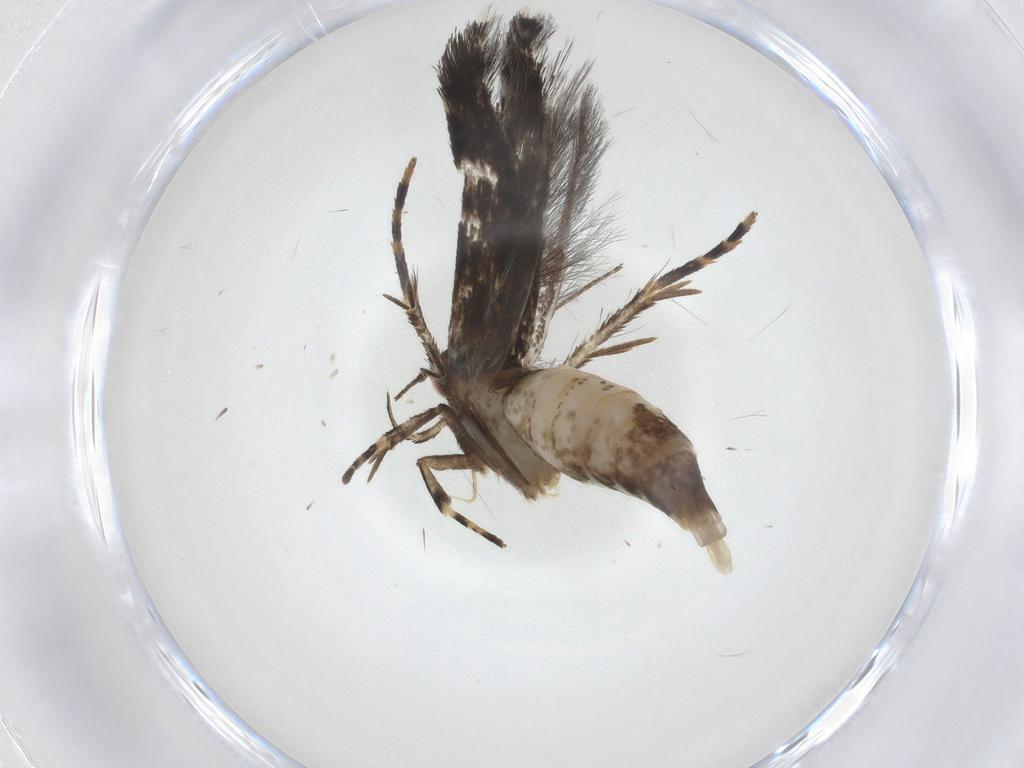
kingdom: Animalia
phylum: Arthropoda
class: Insecta
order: Lepidoptera
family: Cosmopterigidae
